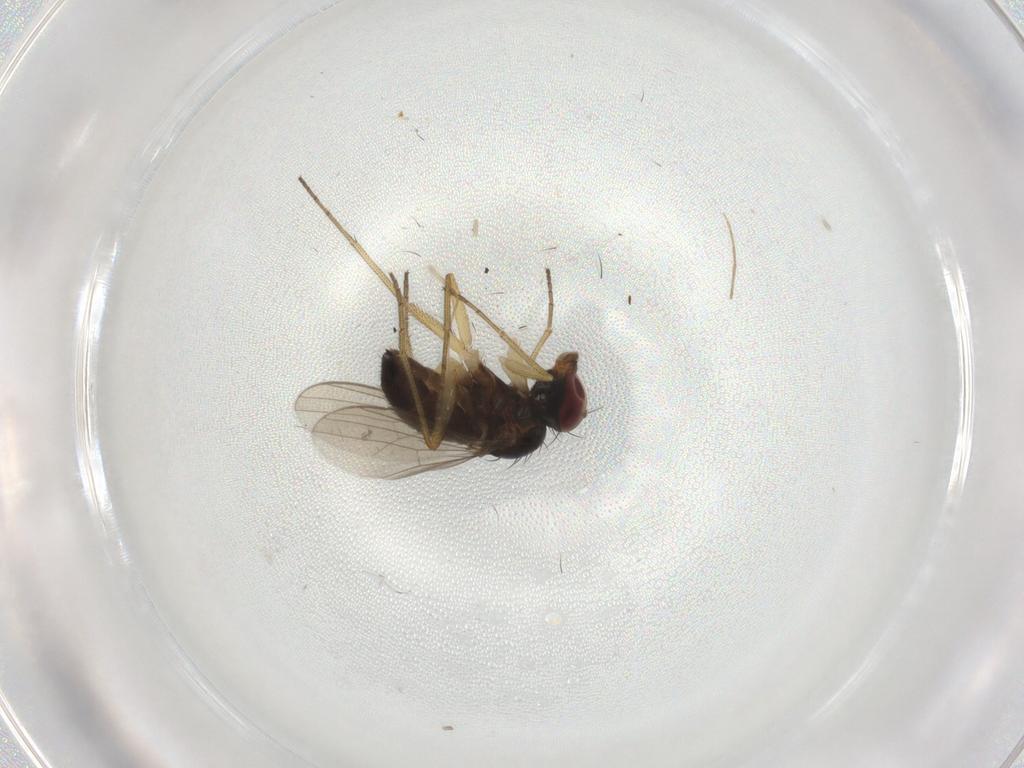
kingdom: Animalia
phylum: Arthropoda
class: Insecta
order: Diptera
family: Dolichopodidae
